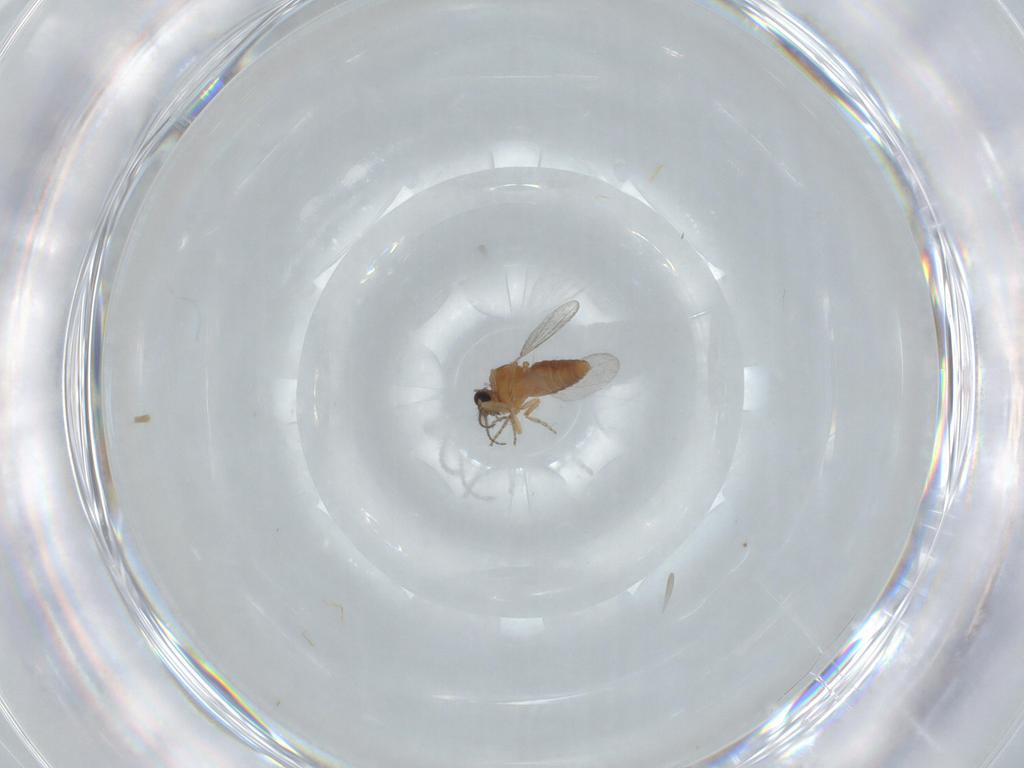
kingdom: Animalia
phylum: Arthropoda
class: Insecta
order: Diptera
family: Ceratopogonidae
